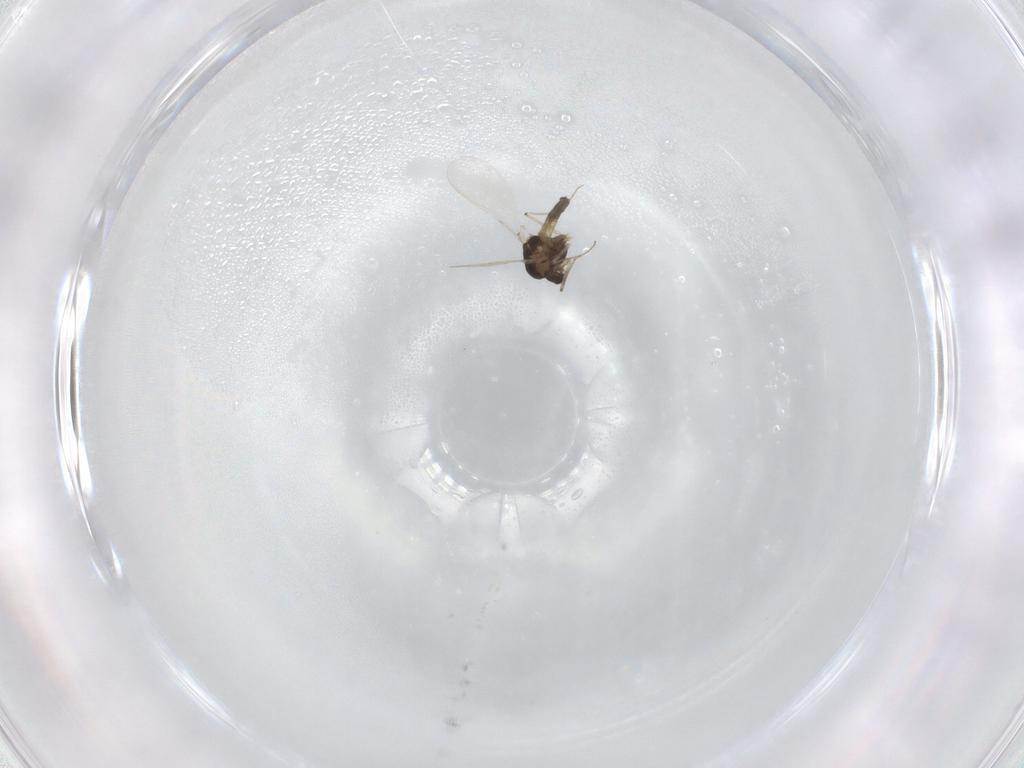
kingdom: Animalia
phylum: Arthropoda
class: Insecta
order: Diptera
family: Chironomidae
